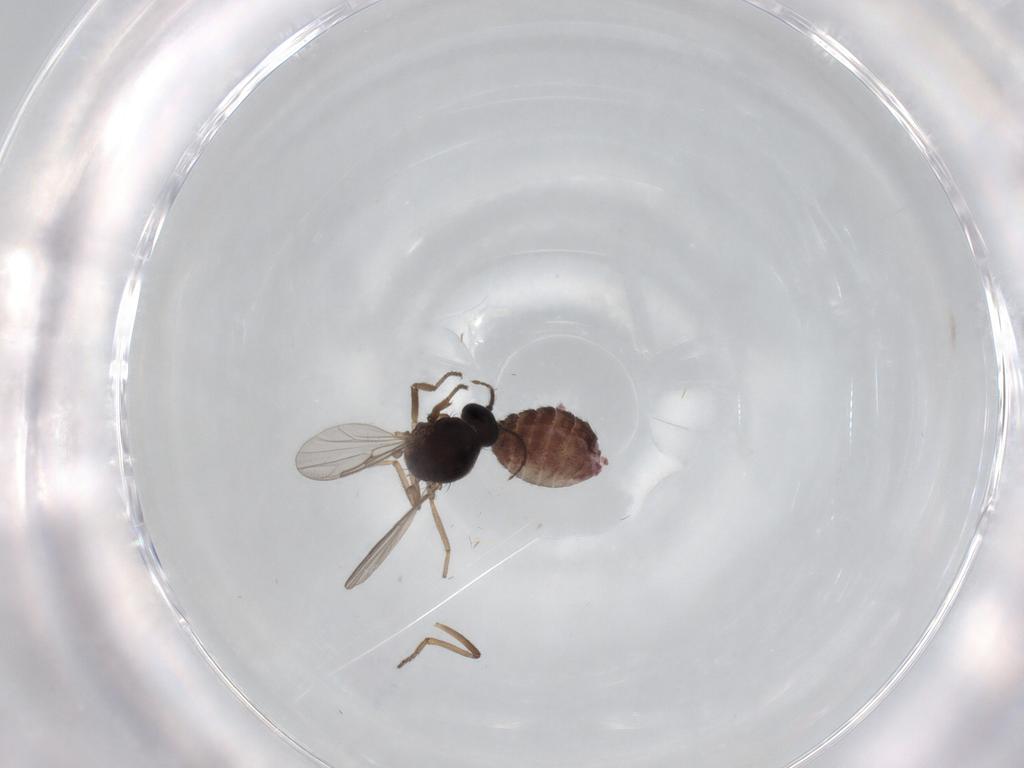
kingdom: Animalia
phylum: Arthropoda
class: Insecta
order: Diptera
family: Ceratopogonidae
